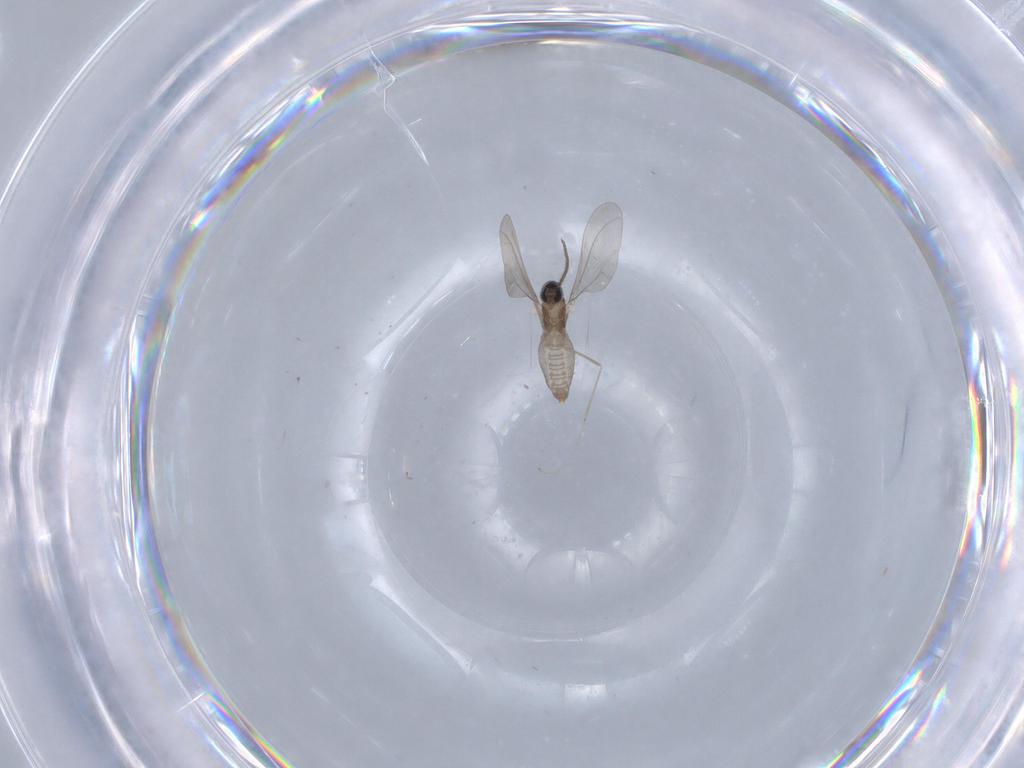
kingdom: Animalia
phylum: Arthropoda
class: Insecta
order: Diptera
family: Cecidomyiidae
